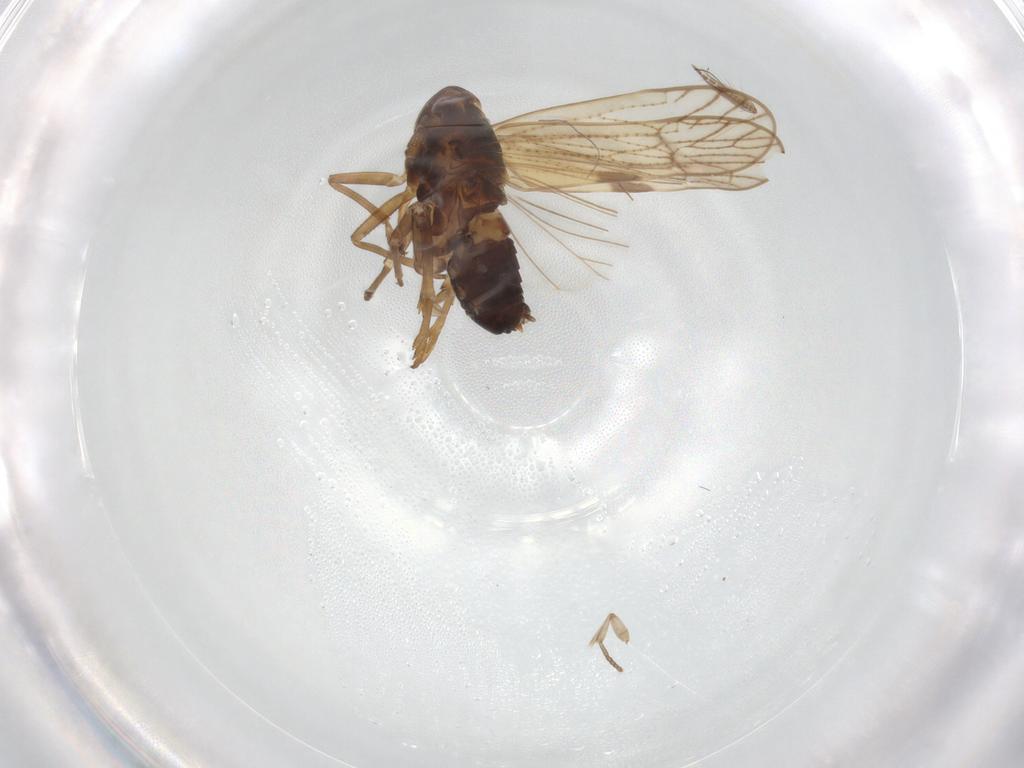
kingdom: Animalia
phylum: Arthropoda
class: Insecta
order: Hemiptera
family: Delphacidae
